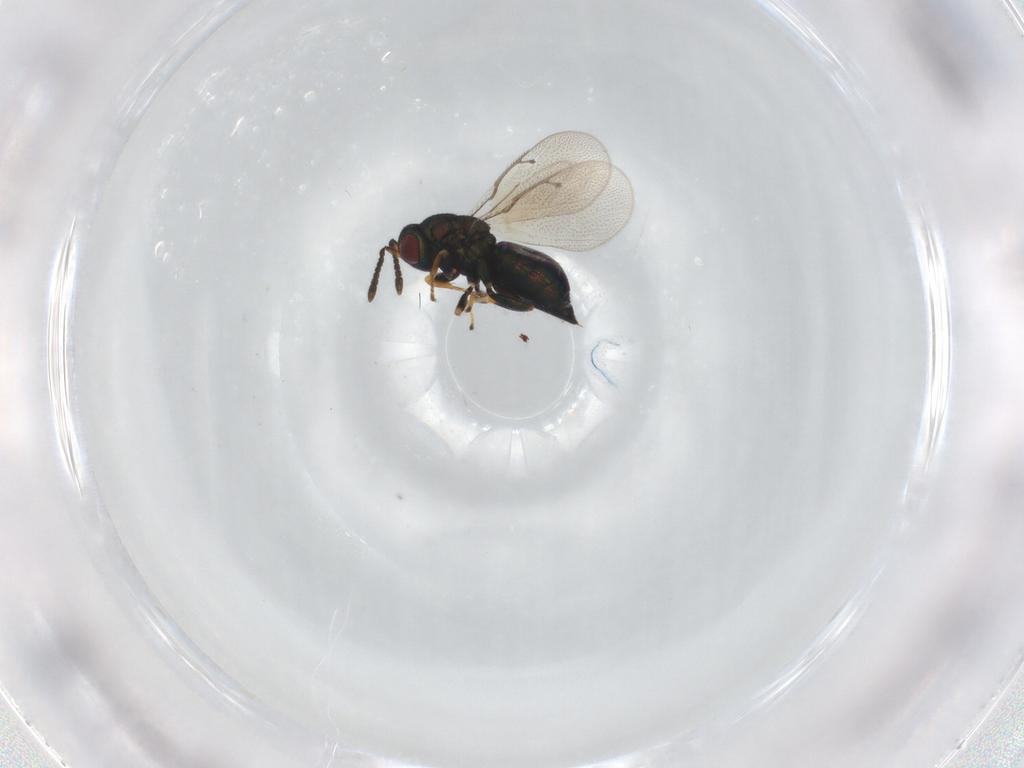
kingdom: Animalia
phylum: Arthropoda
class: Insecta
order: Hymenoptera
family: Pteromalidae
